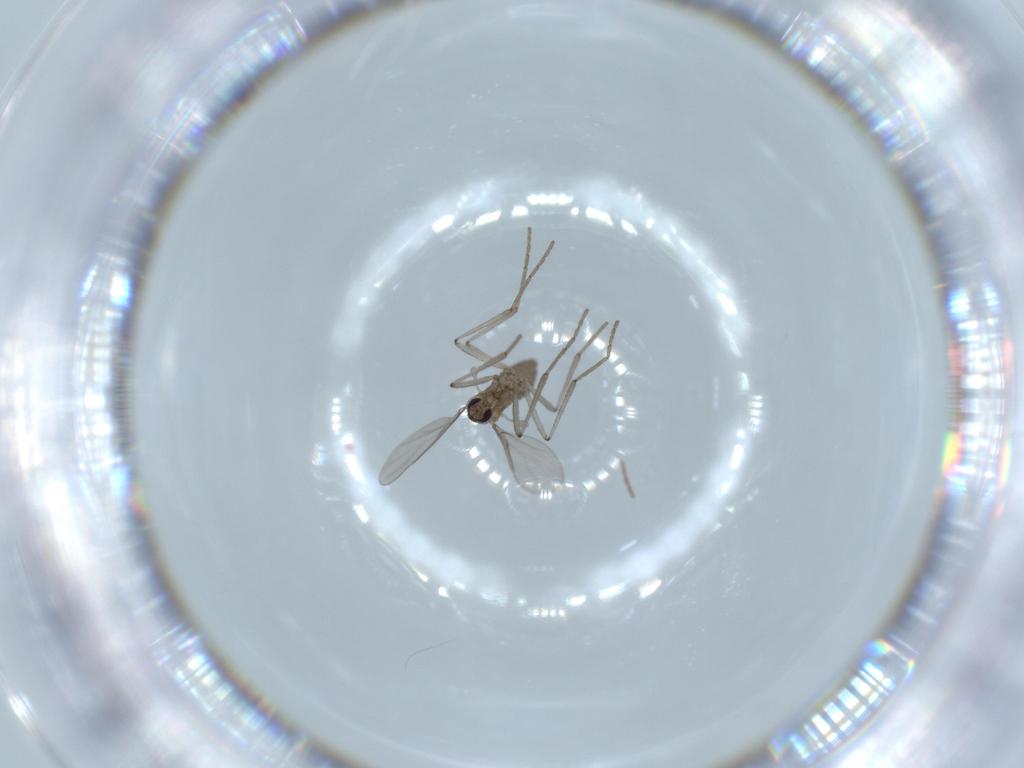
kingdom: Animalia
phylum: Arthropoda
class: Insecta
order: Diptera
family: Cecidomyiidae
